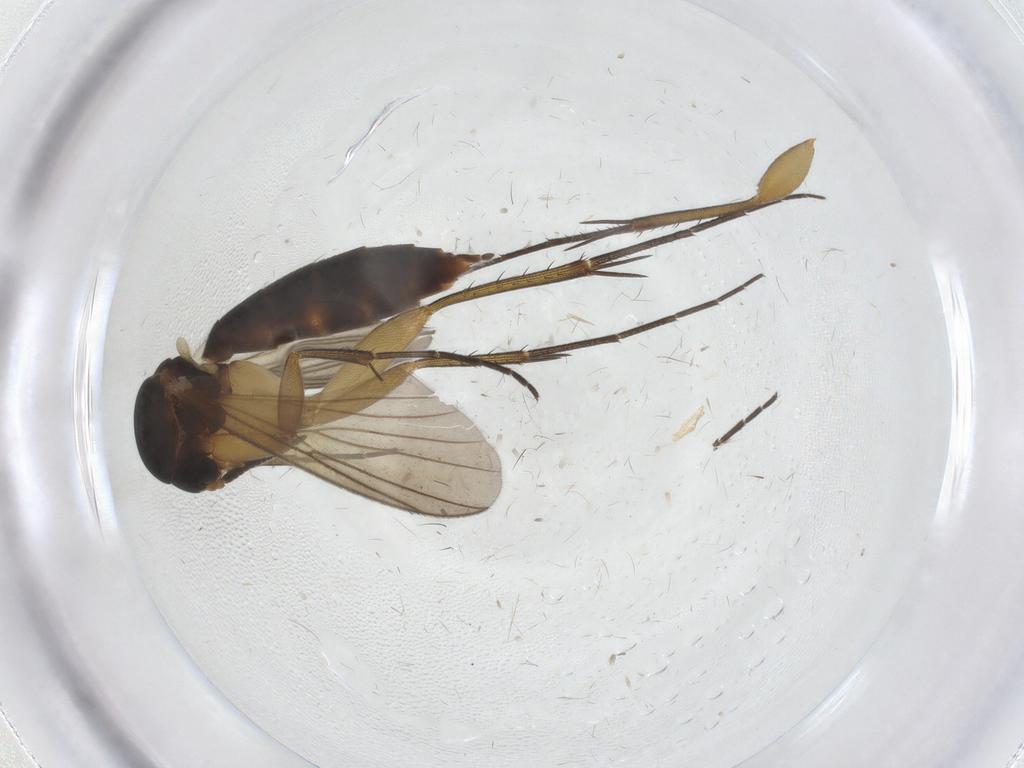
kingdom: Animalia
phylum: Arthropoda
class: Insecta
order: Diptera
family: Mycetophilidae
